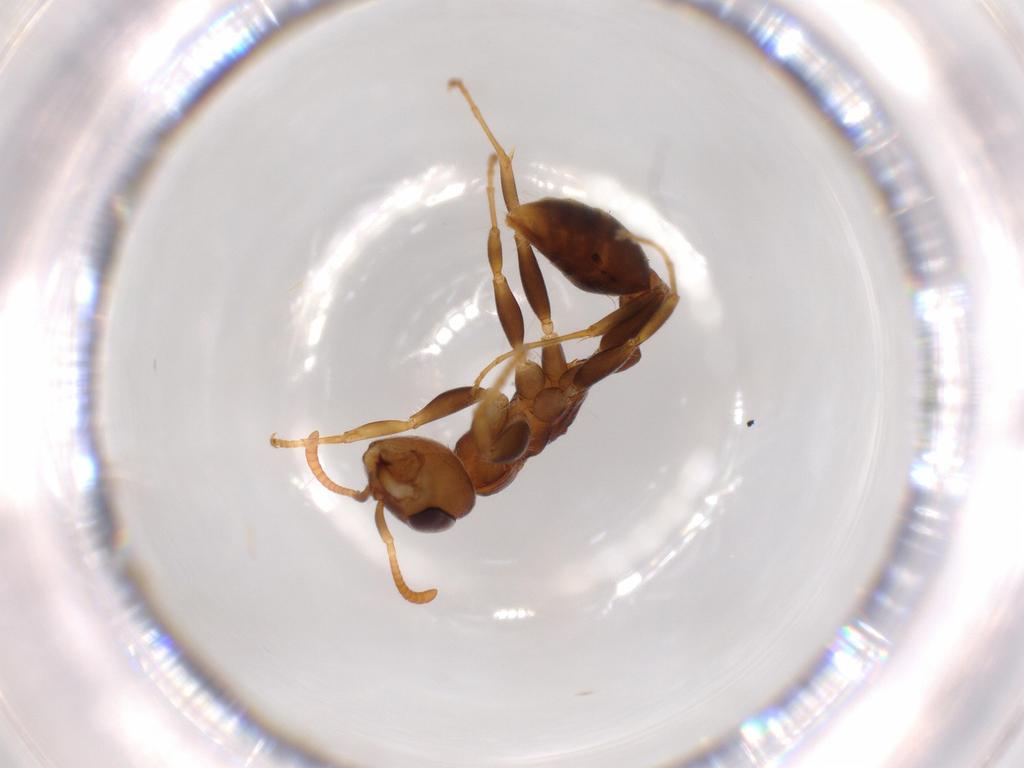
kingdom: Animalia
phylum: Arthropoda
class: Insecta
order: Hymenoptera
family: Formicidae
